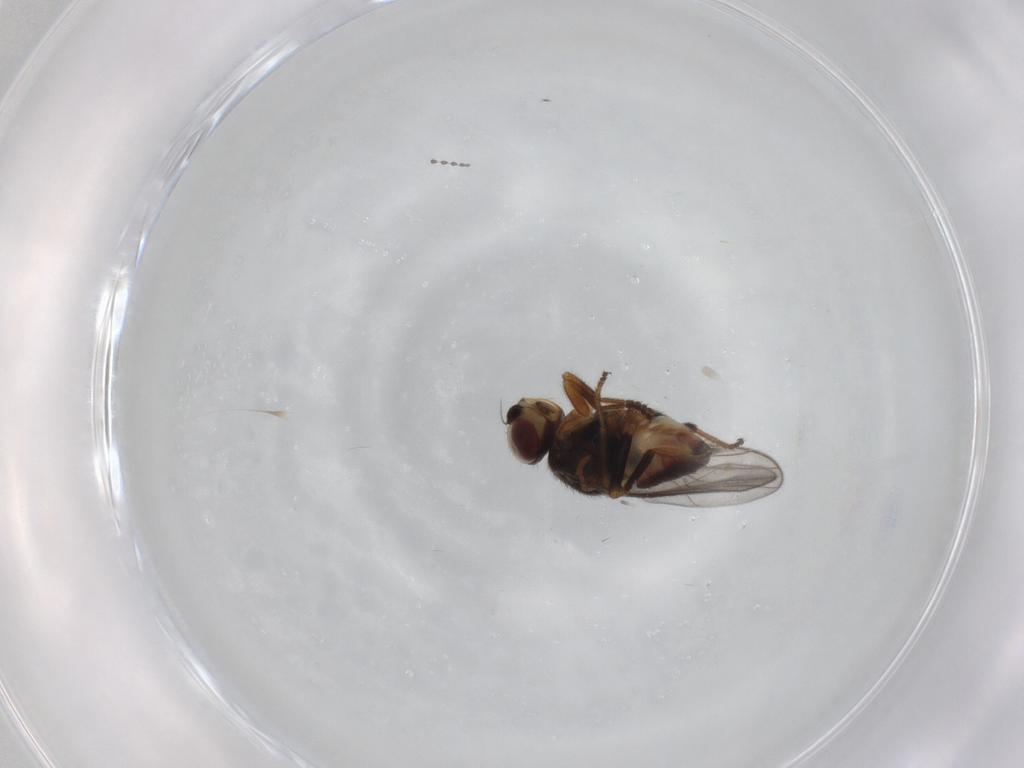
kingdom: Animalia
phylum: Arthropoda
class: Insecta
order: Diptera
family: Chloropidae
